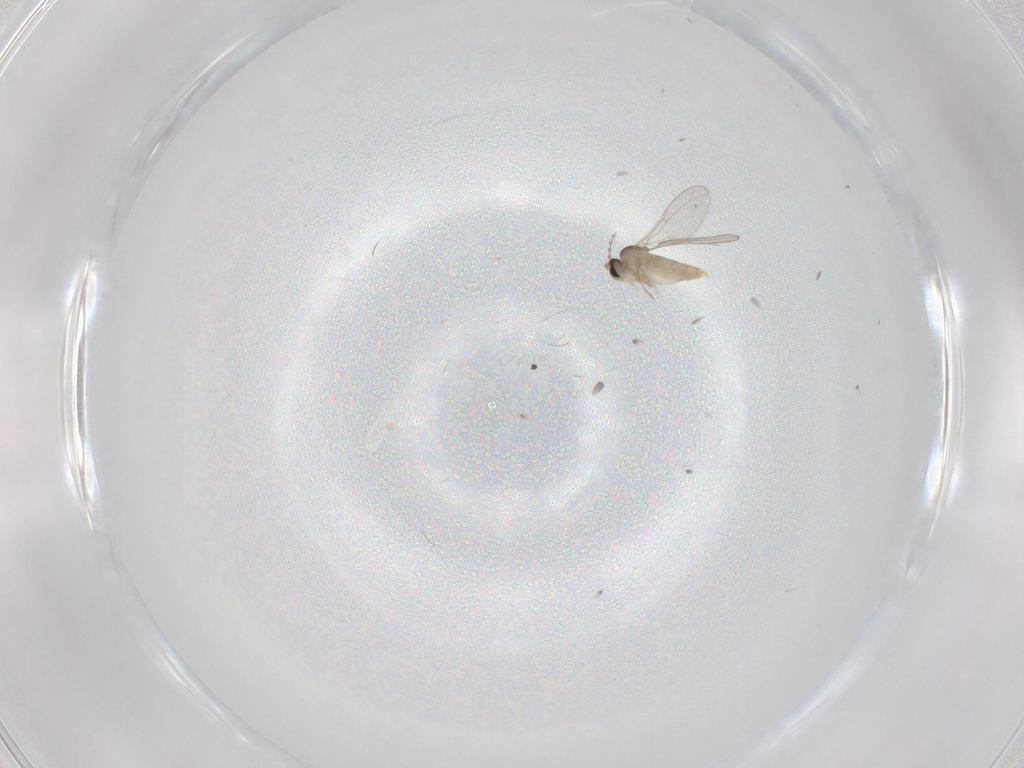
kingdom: Animalia
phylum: Arthropoda
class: Insecta
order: Diptera
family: Cecidomyiidae
